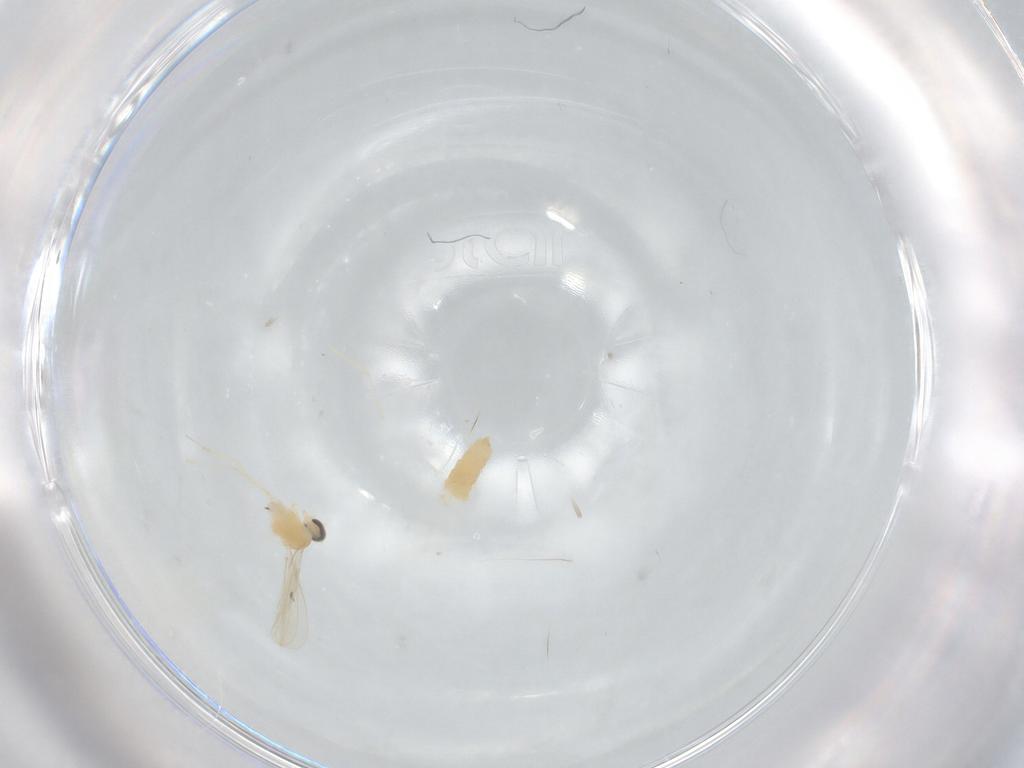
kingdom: Animalia
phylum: Arthropoda
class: Insecta
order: Diptera
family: Cecidomyiidae
